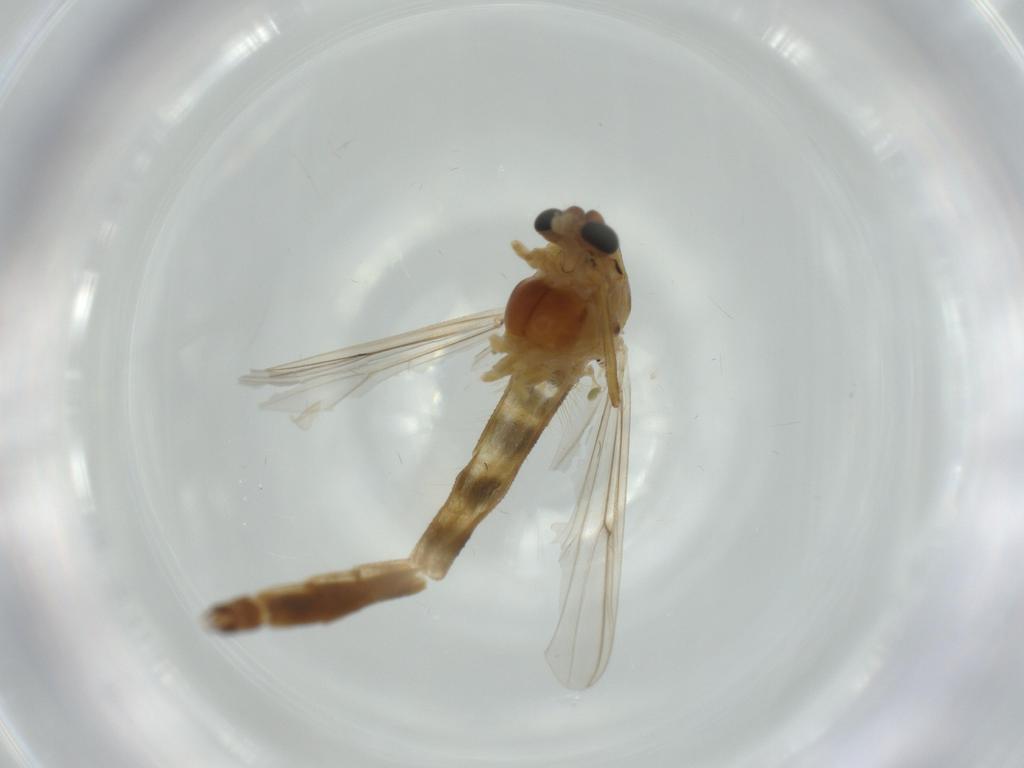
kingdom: Animalia
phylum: Arthropoda
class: Insecta
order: Diptera
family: Chironomidae
